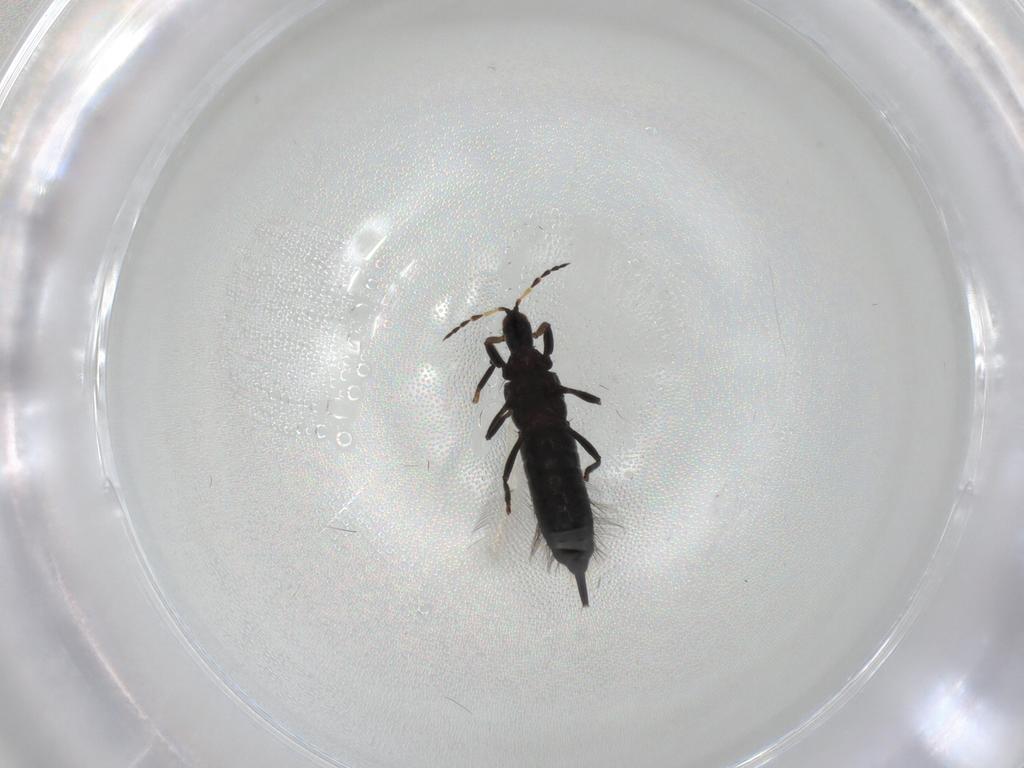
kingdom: Animalia
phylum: Arthropoda
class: Insecta
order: Thysanoptera
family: Phlaeothripidae
